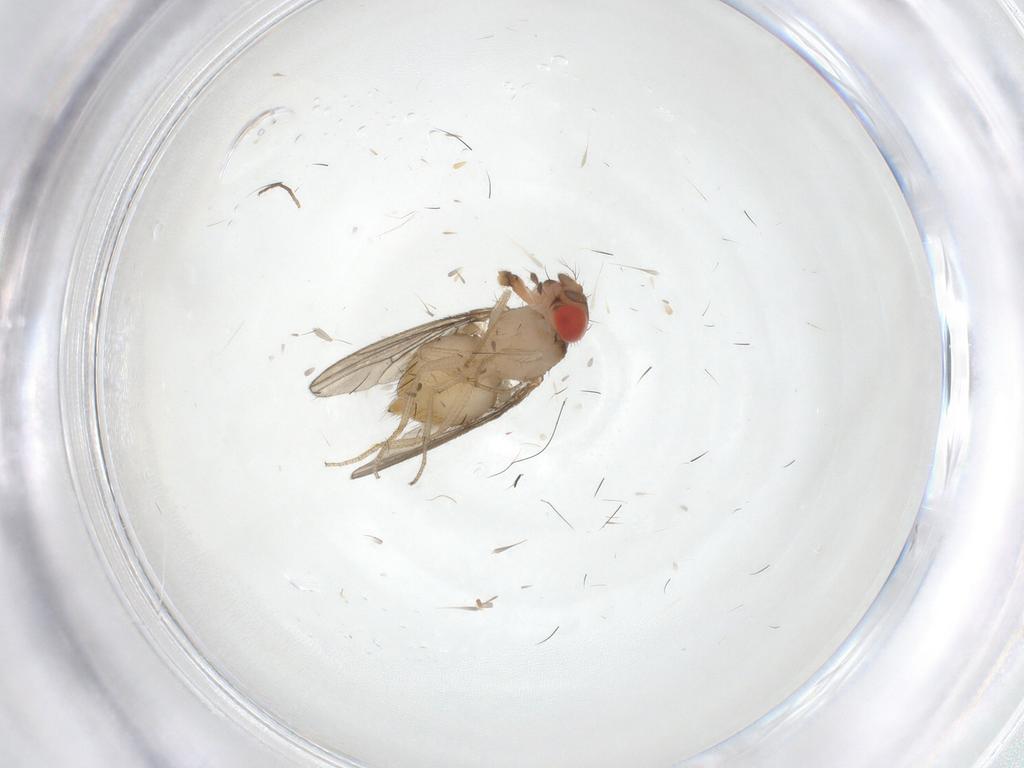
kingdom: Animalia
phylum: Arthropoda
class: Insecta
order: Diptera
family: Drosophilidae
